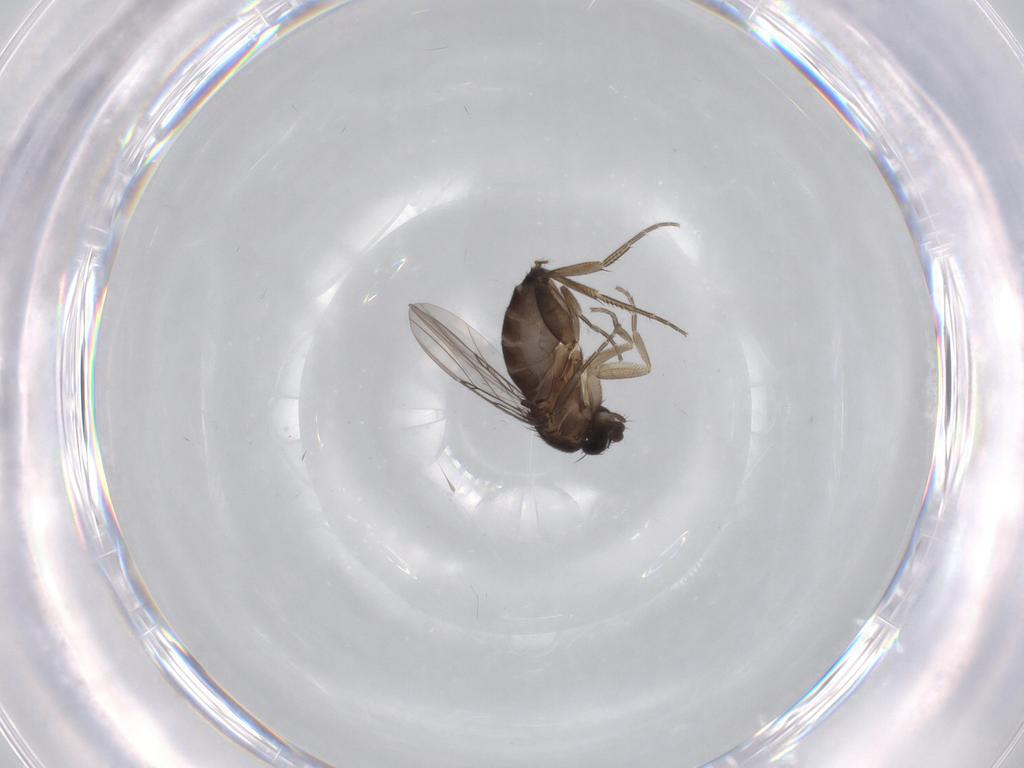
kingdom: Animalia
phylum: Arthropoda
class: Insecta
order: Diptera
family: Phoridae
